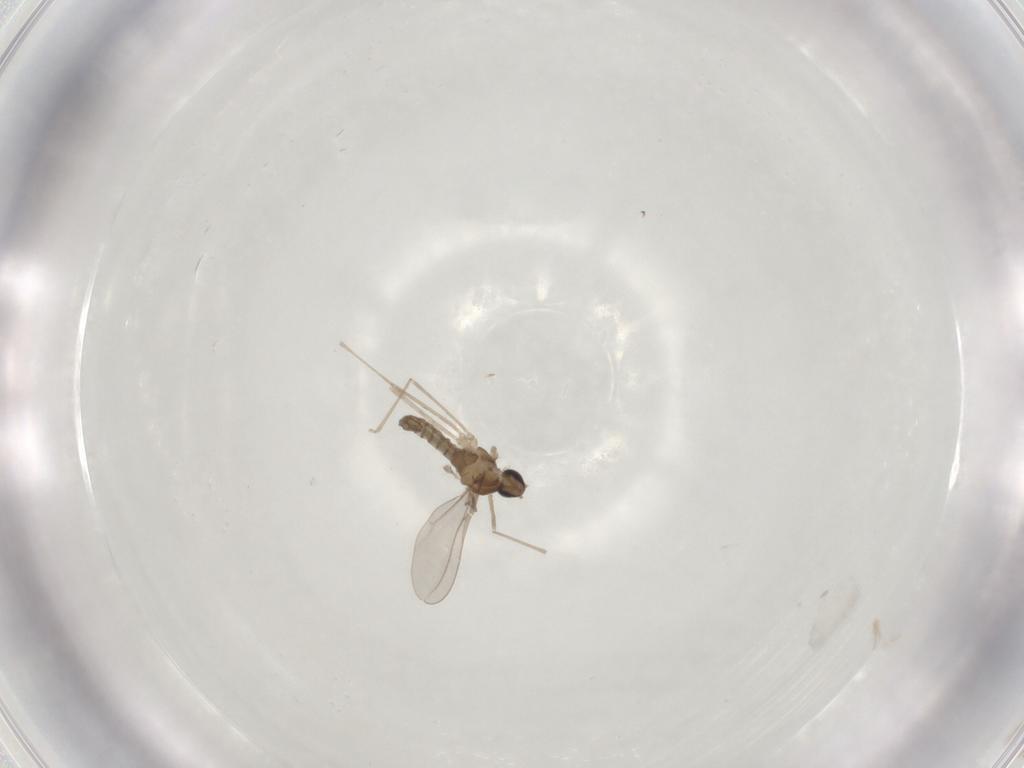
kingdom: Animalia
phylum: Arthropoda
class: Insecta
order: Diptera
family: Cecidomyiidae
